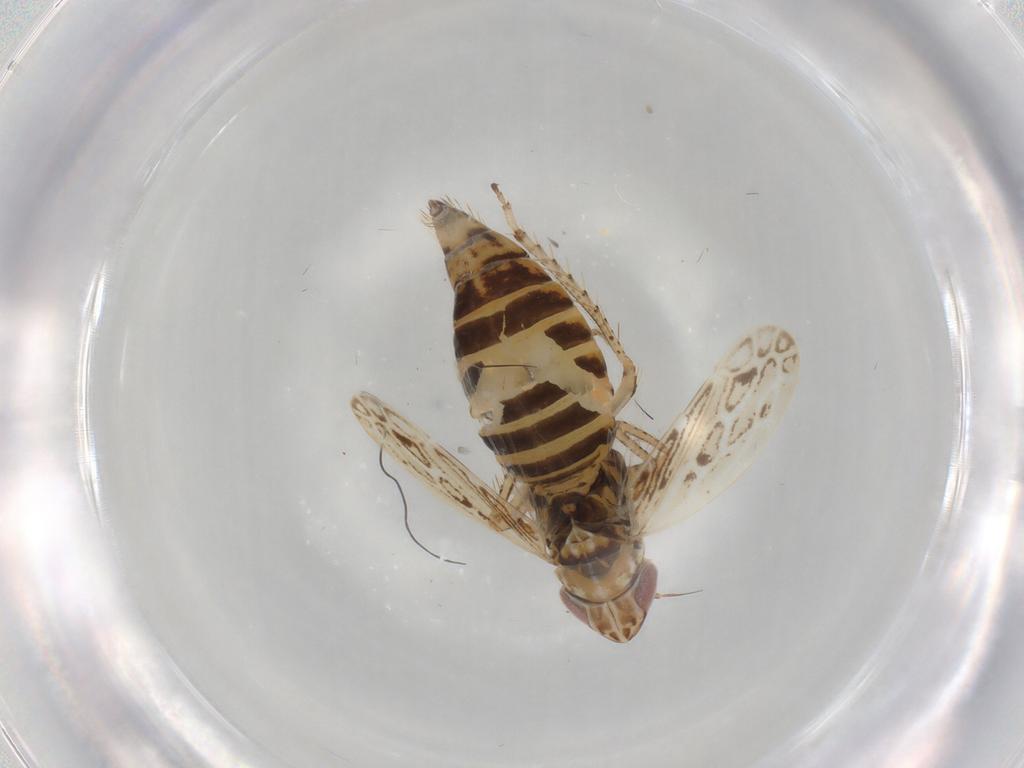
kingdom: Animalia
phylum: Arthropoda
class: Insecta
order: Hemiptera
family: Cicadellidae
